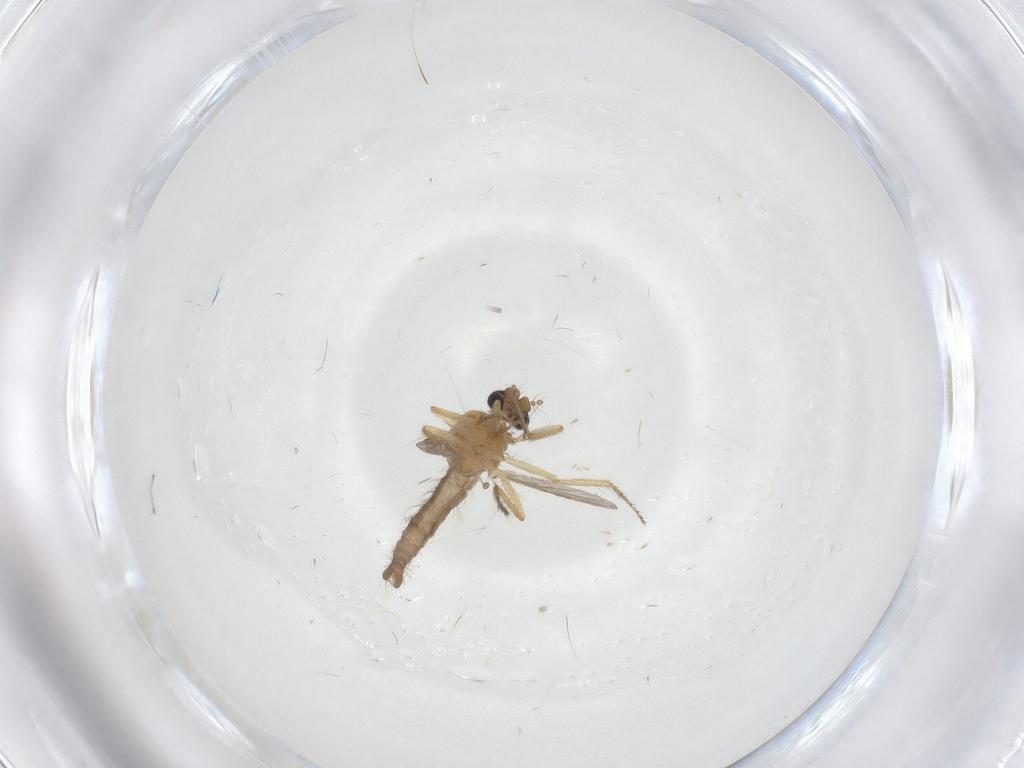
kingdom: Animalia
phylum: Arthropoda
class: Insecta
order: Diptera
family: Ceratopogonidae
